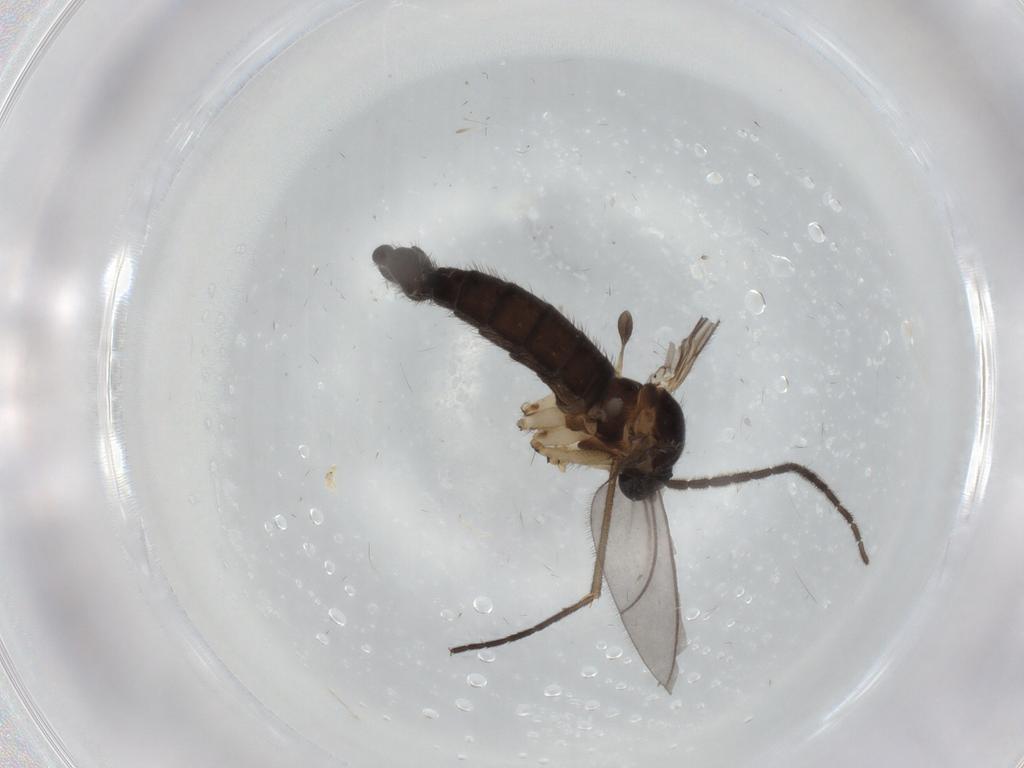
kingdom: Animalia
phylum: Arthropoda
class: Insecta
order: Diptera
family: Sciaridae
